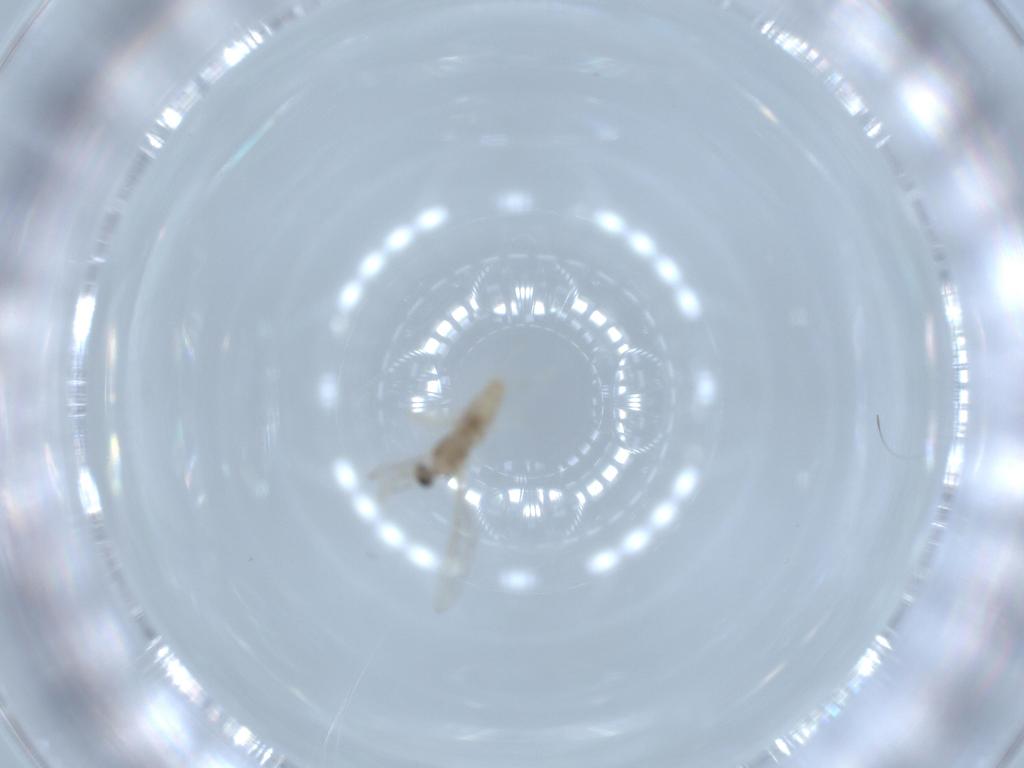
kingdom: Animalia
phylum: Arthropoda
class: Insecta
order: Diptera
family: Cecidomyiidae
